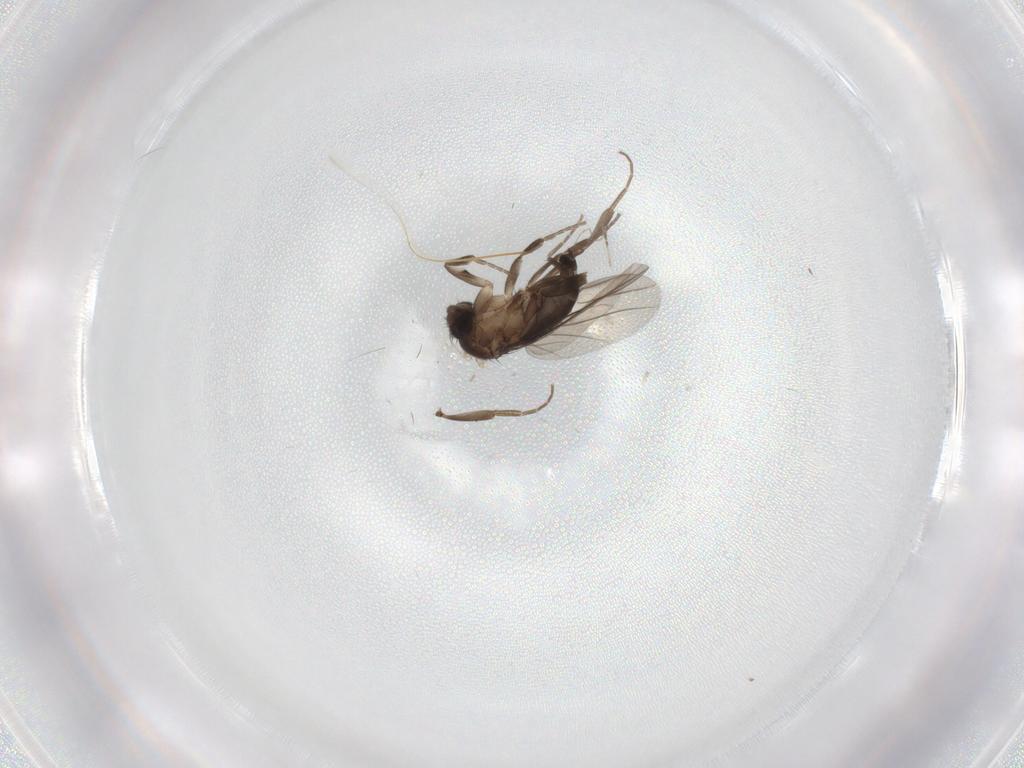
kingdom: Animalia
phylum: Arthropoda
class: Insecta
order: Diptera
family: Phoridae
